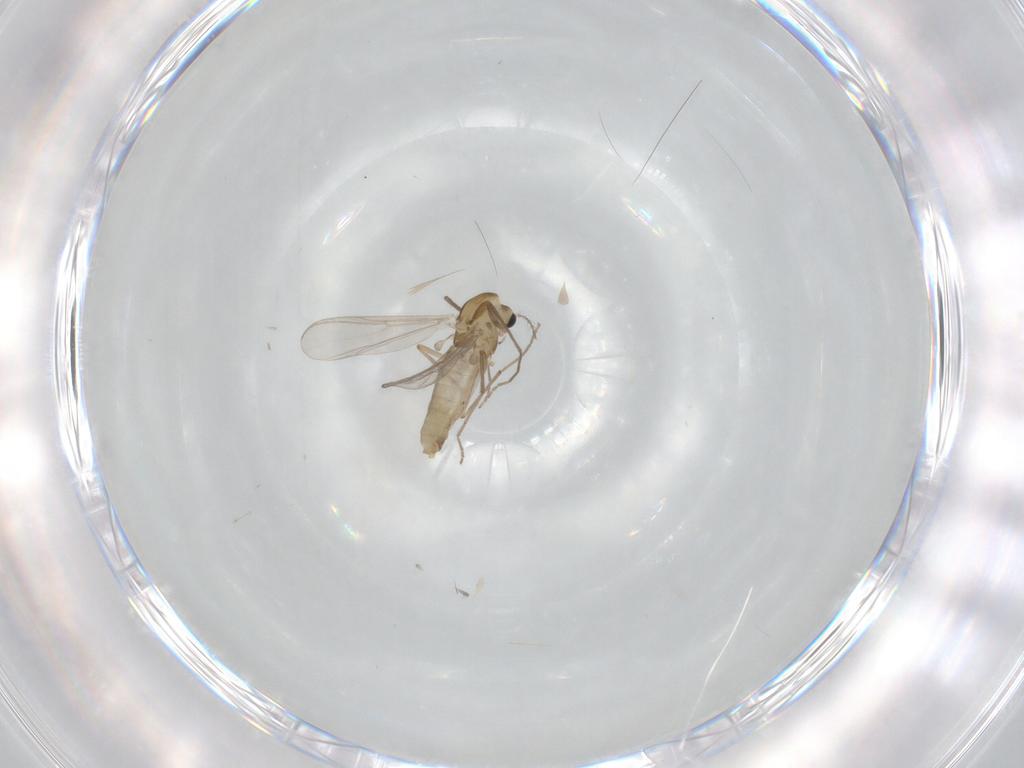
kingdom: Animalia
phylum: Arthropoda
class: Insecta
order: Diptera
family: Chironomidae
